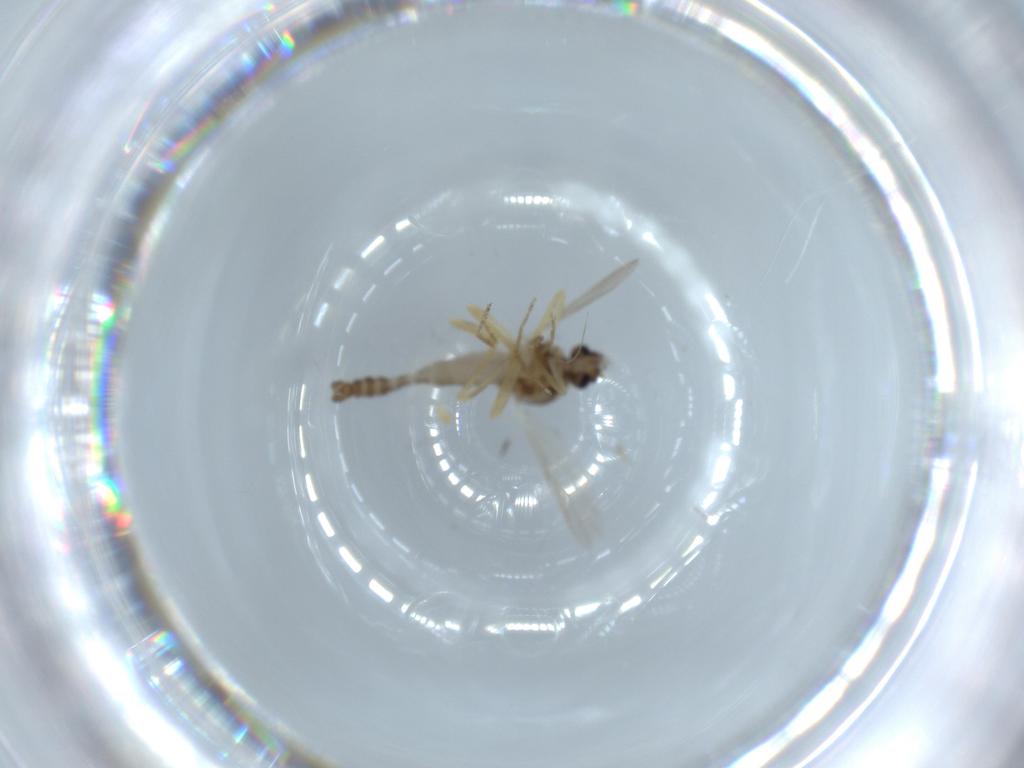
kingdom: Animalia
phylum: Arthropoda
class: Insecta
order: Diptera
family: Ceratopogonidae
